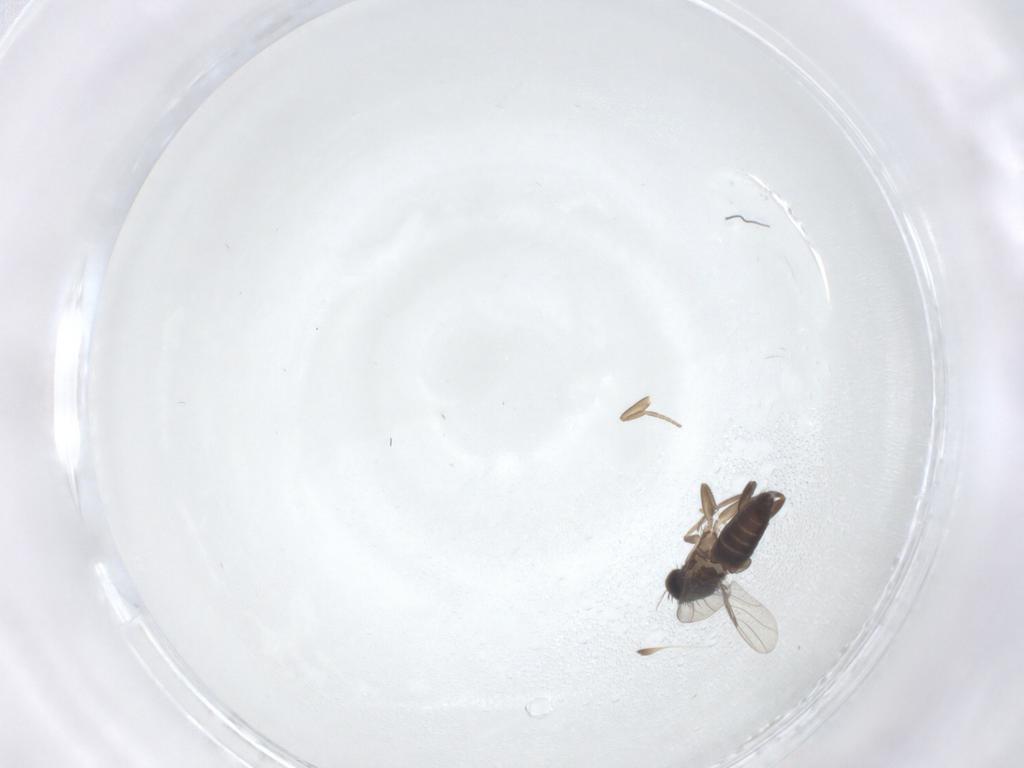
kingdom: Animalia
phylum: Arthropoda
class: Insecta
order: Diptera
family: Phoridae
